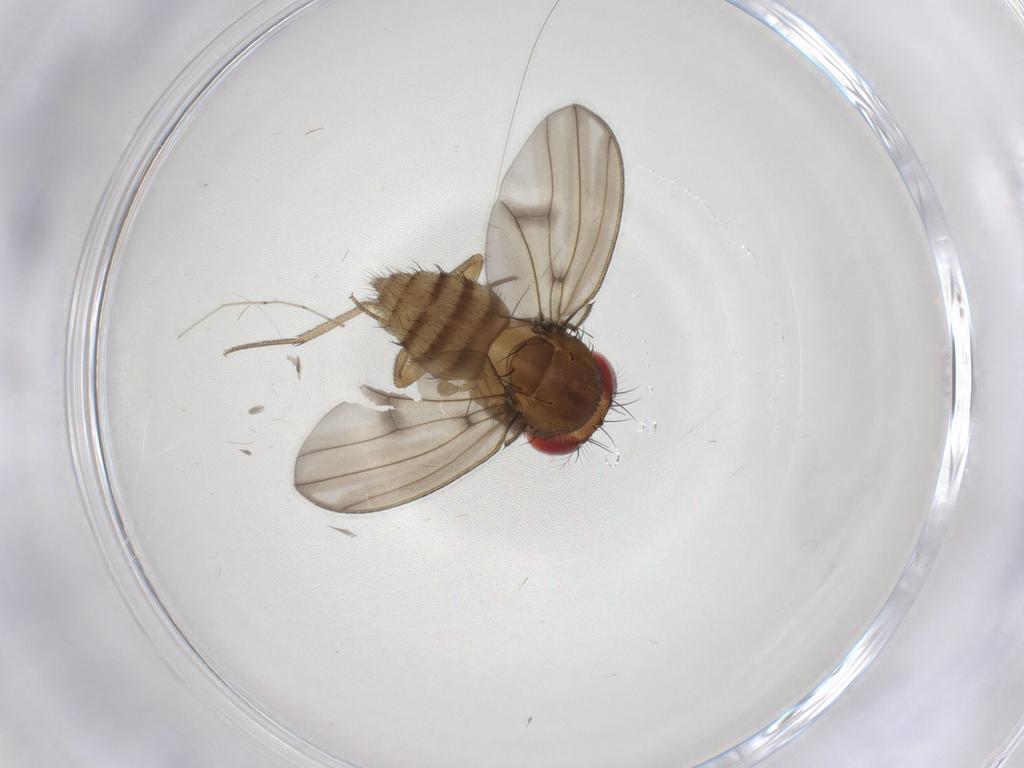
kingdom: Animalia
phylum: Arthropoda
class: Insecta
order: Diptera
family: Drosophilidae
